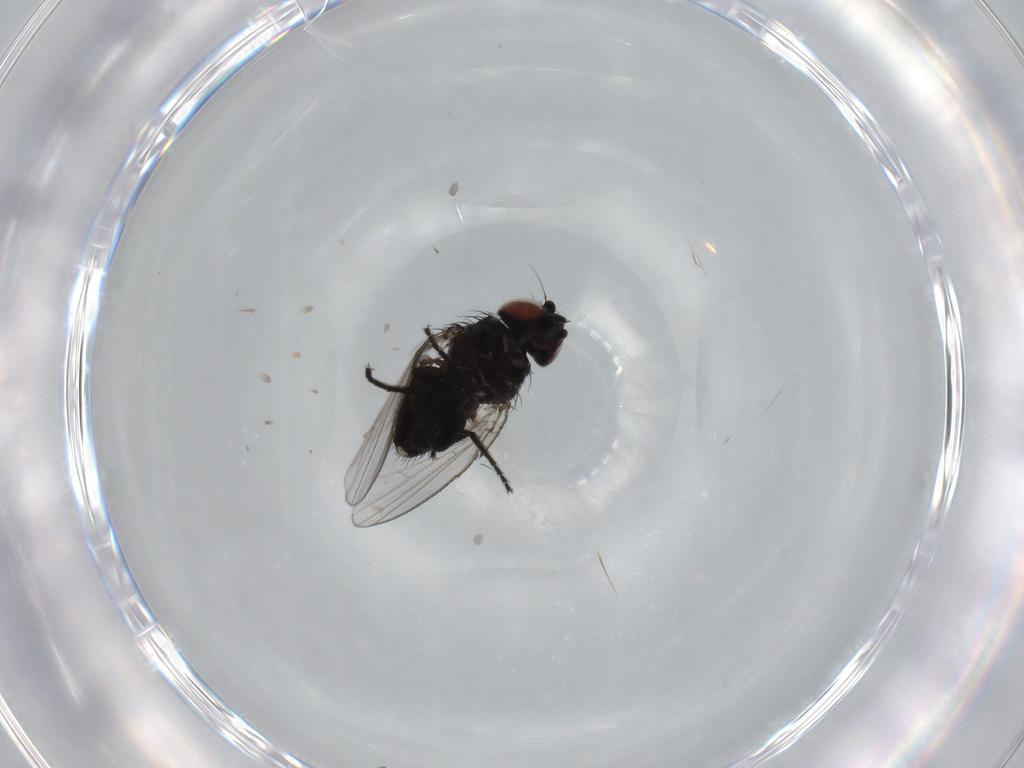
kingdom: Animalia
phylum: Arthropoda
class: Insecta
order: Diptera
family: Milichiidae
